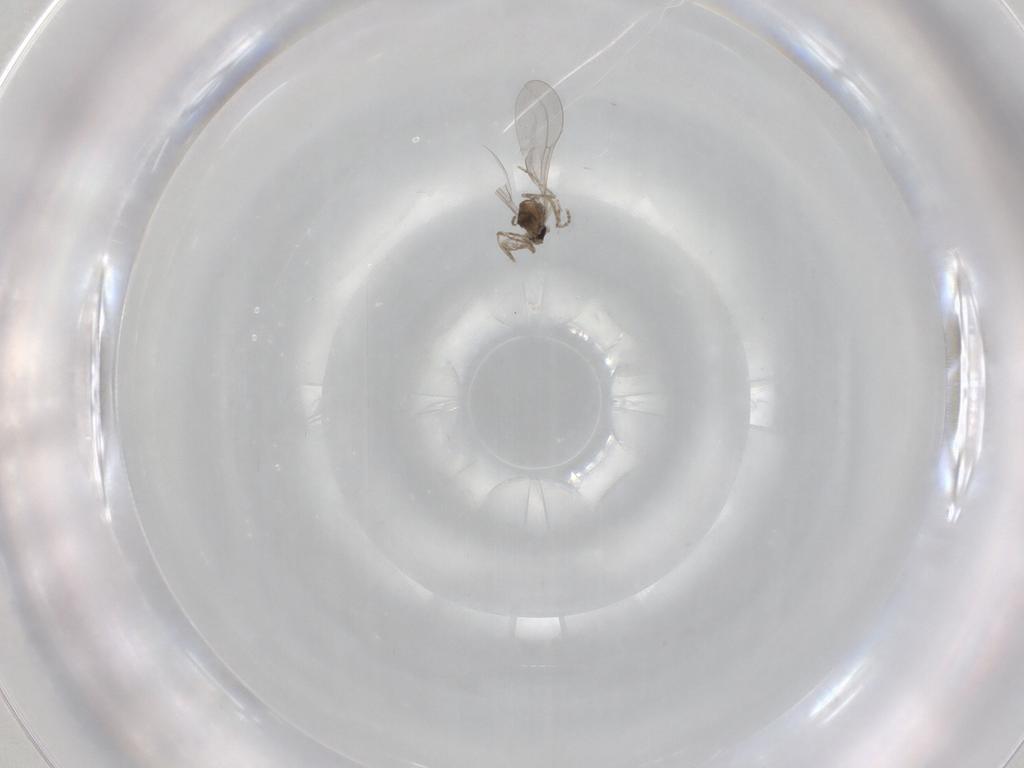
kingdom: Animalia
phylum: Arthropoda
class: Insecta
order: Diptera
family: Cecidomyiidae
